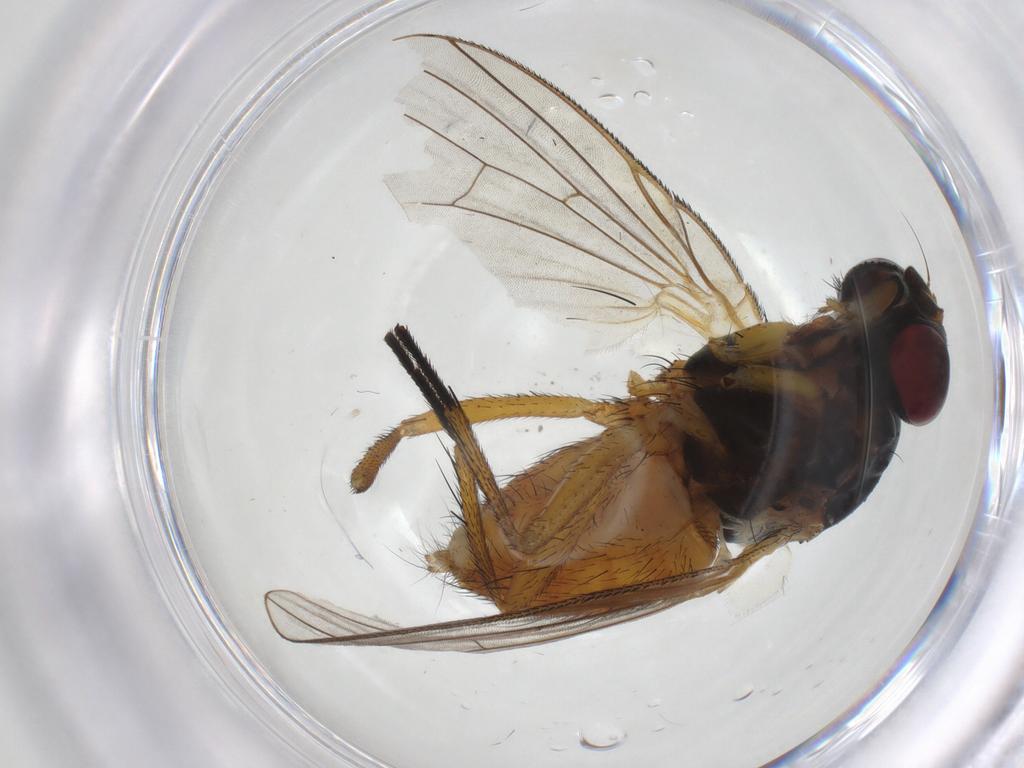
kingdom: Animalia
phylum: Arthropoda
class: Insecta
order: Diptera
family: Fannia
